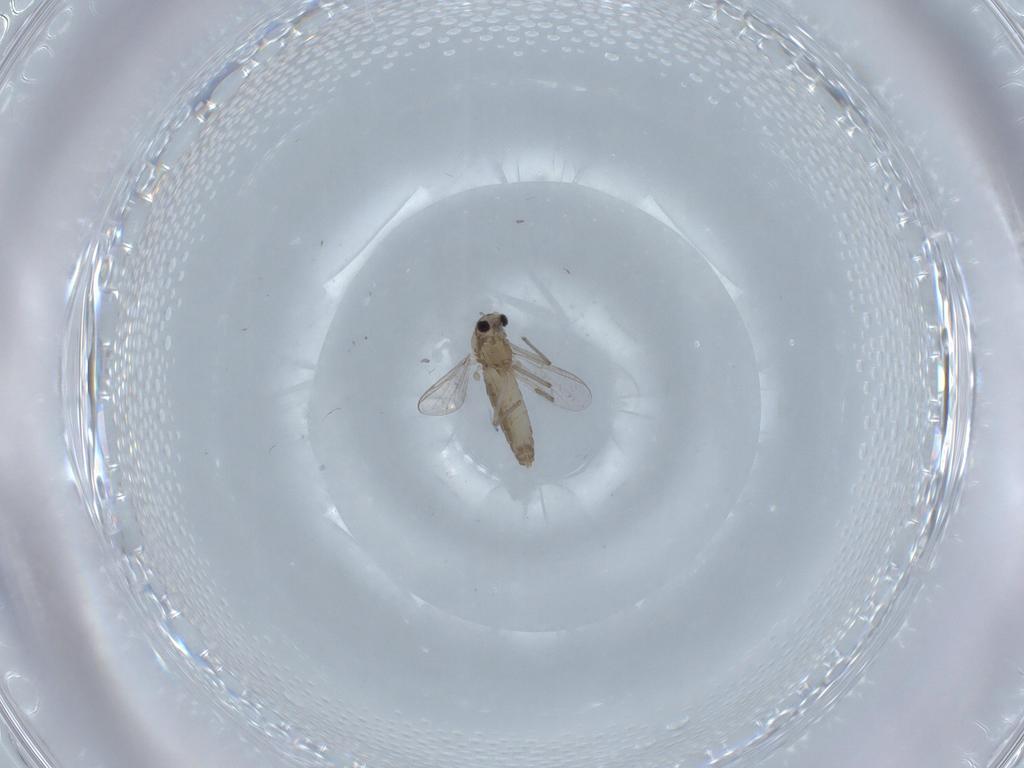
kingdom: Animalia
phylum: Arthropoda
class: Insecta
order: Diptera
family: Chironomidae
